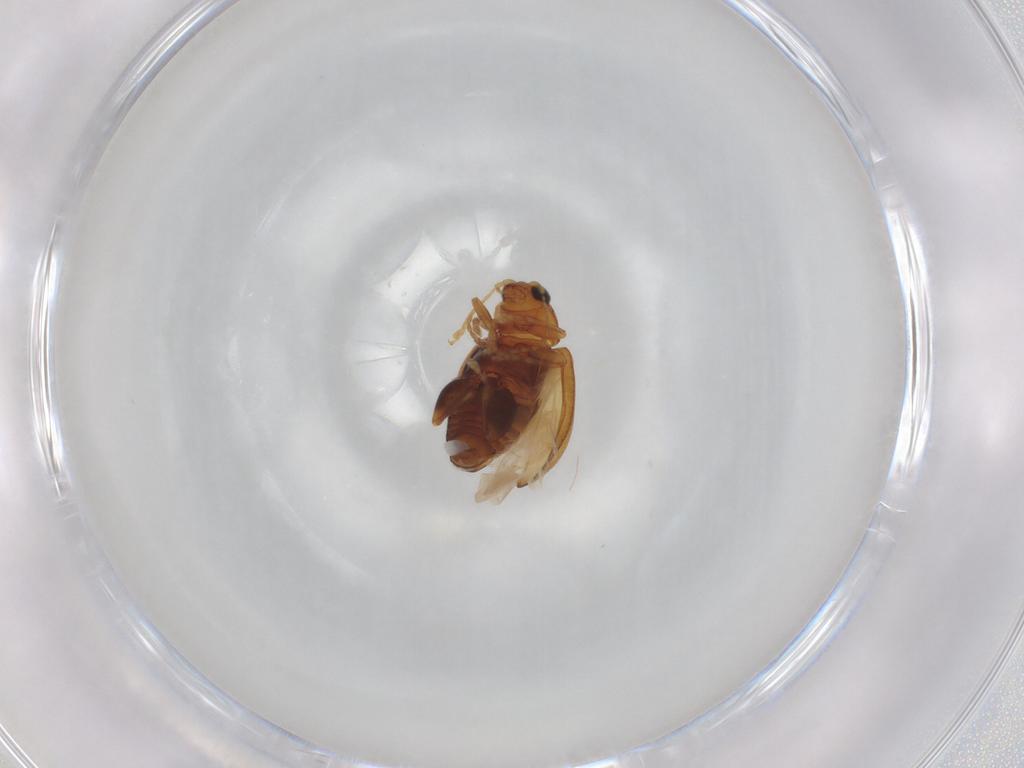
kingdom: Animalia
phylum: Arthropoda
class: Insecta
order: Coleoptera
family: Chrysomelidae
